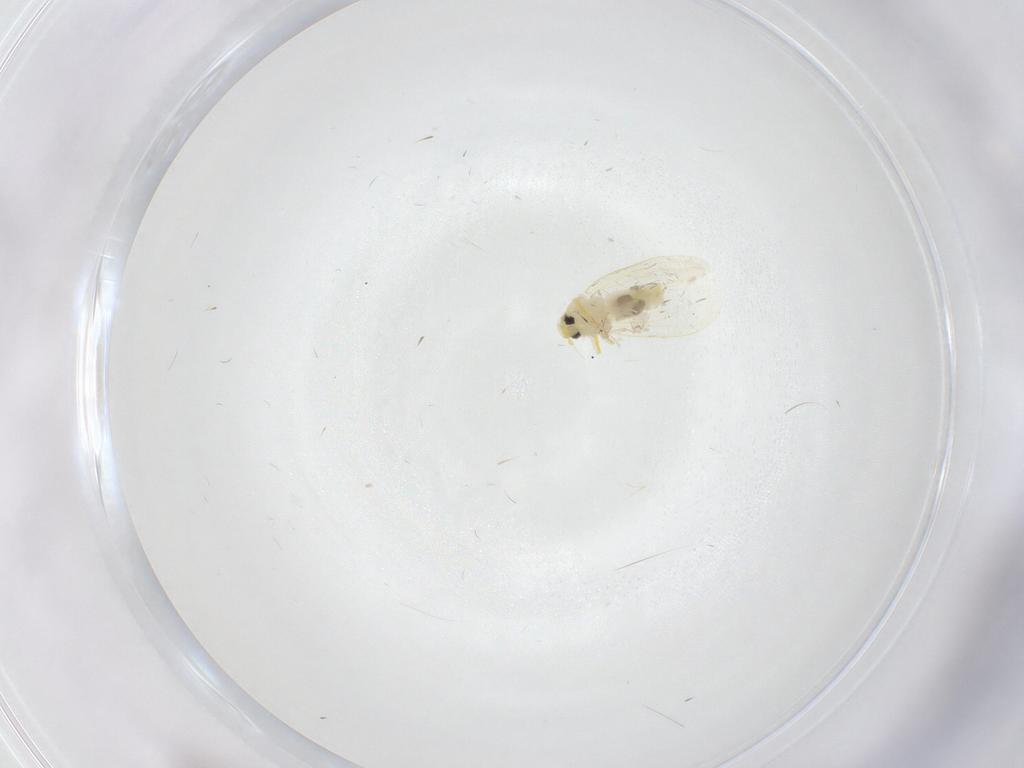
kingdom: Animalia
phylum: Arthropoda
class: Insecta
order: Hemiptera
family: Aleyrodidae
